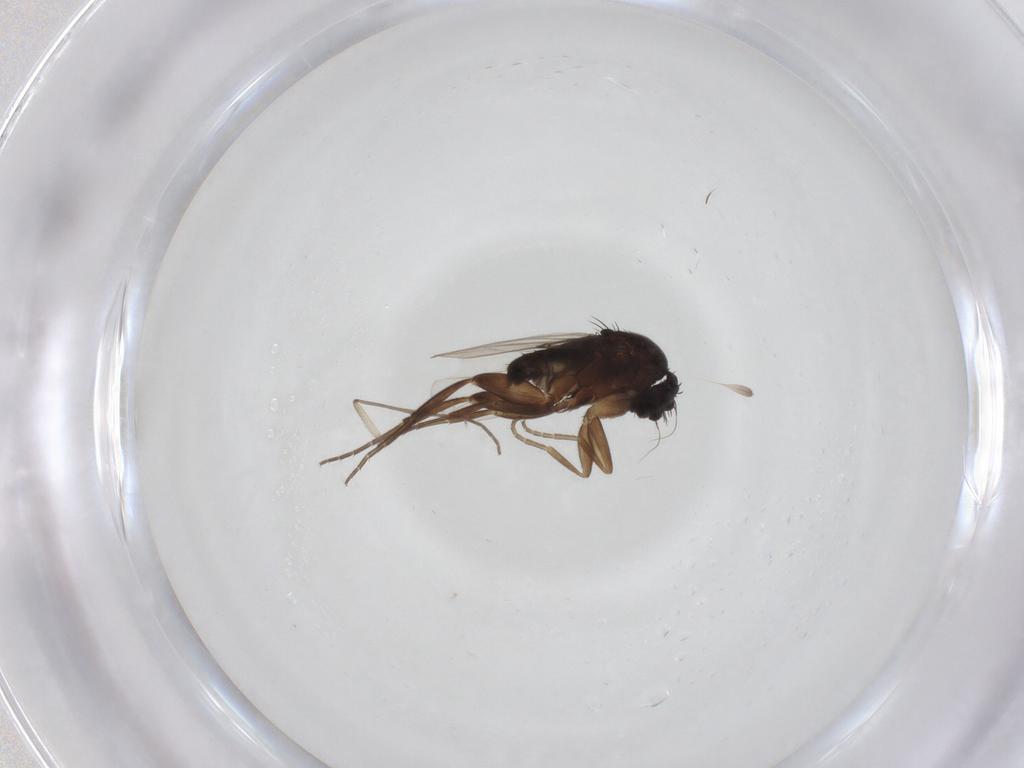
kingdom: Animalia
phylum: Arthropoda
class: Insecta
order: Diptera
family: Phoridae
